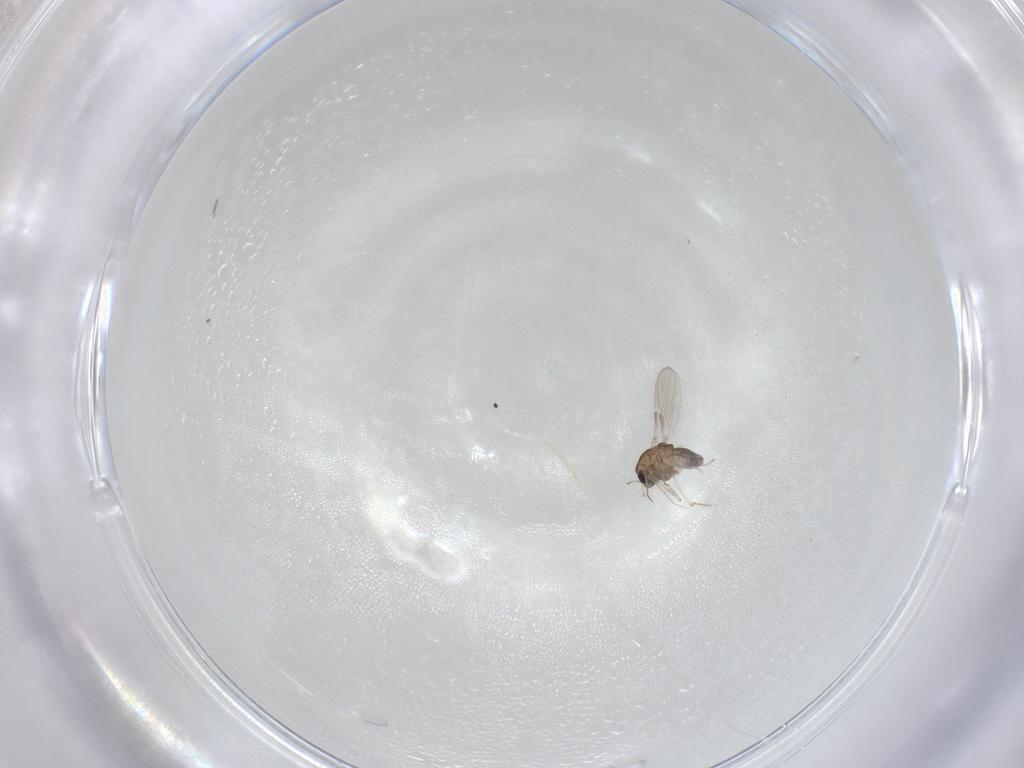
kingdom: Animalia
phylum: Arthropoda
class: Insecta
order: Diptera
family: Chironomidae
